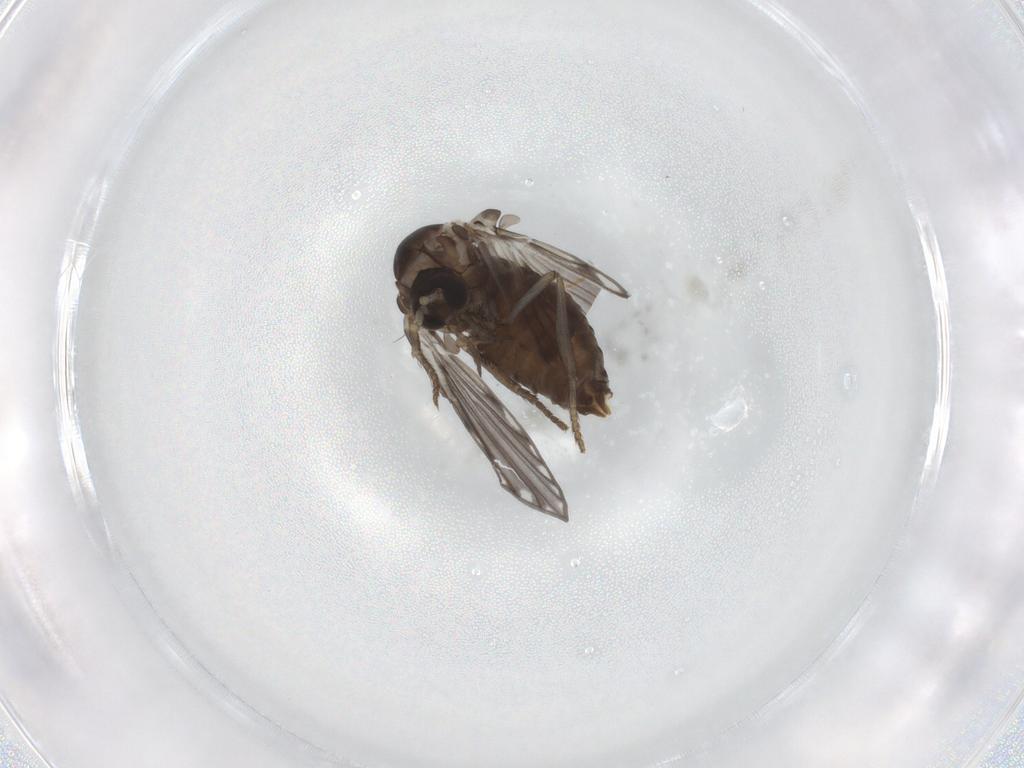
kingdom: Animalia
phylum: Arthropoda
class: Insecta
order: Diptera
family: Psychodidae
